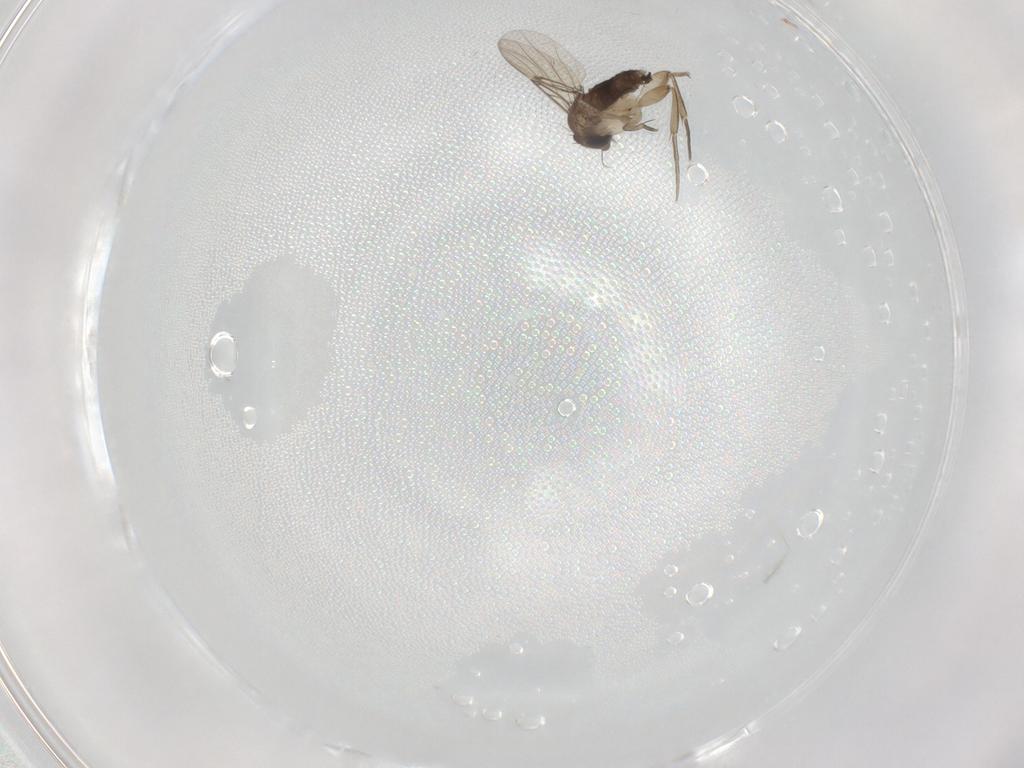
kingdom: Animalia
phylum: Arthropoda
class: Insecta
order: Diptera
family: Phoridae
